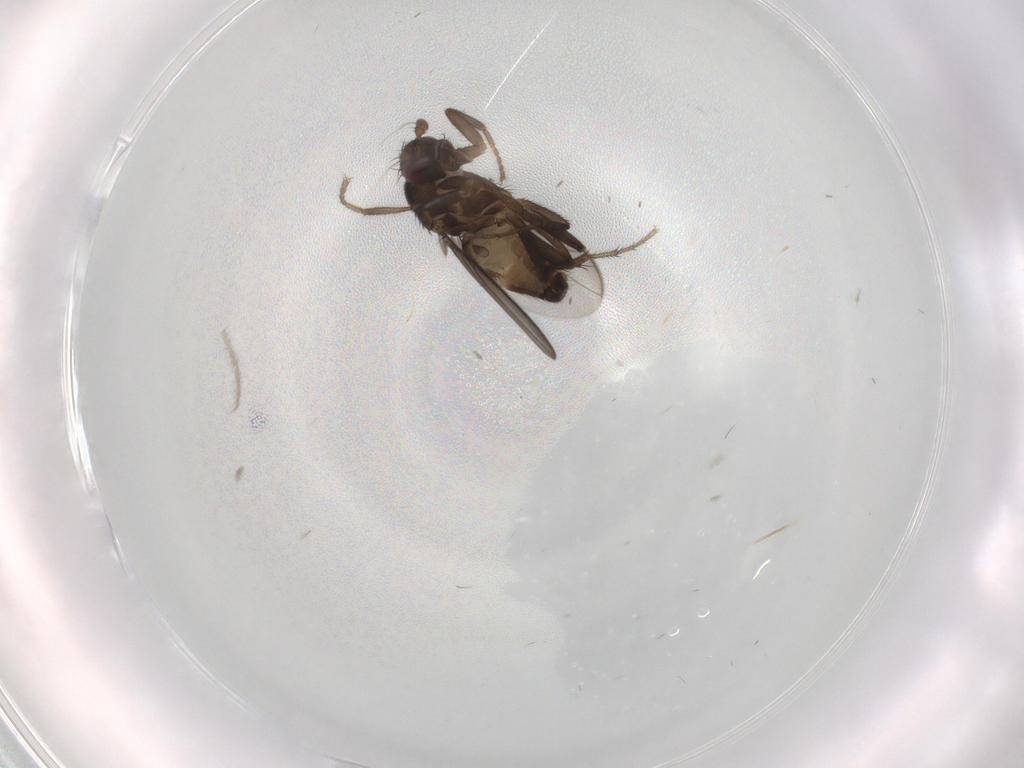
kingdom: Animalia
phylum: Arthropoda
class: Insecta
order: Diptera
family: Sphaeroceridae
